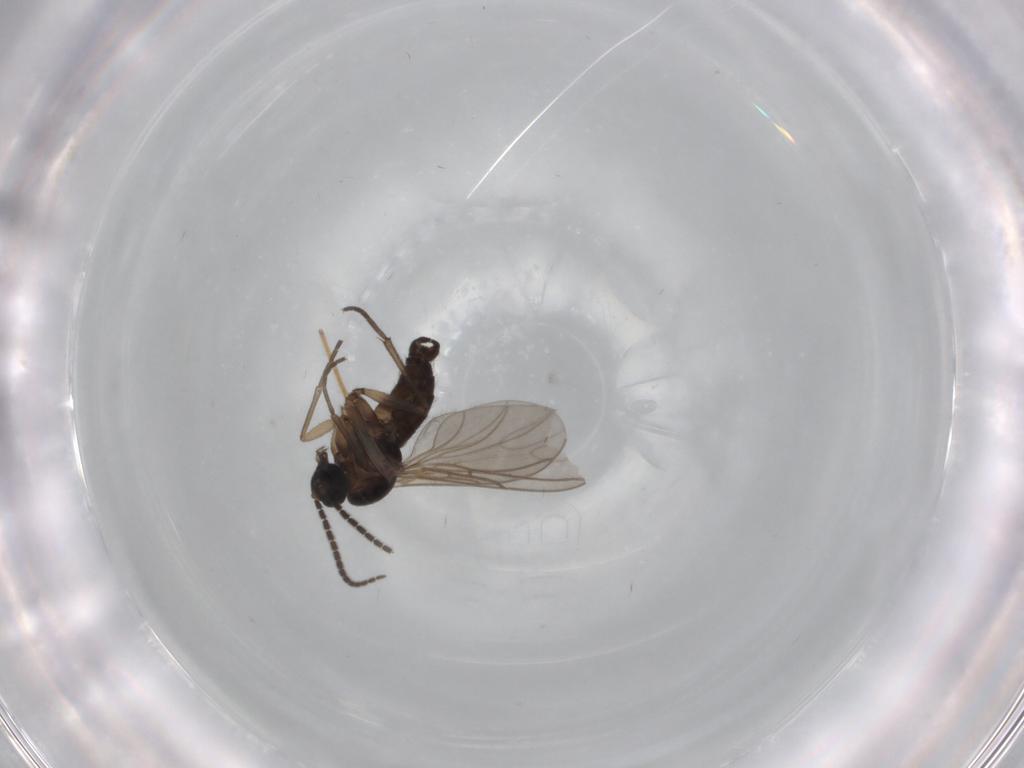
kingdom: Animalia
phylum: Arthropoda
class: Insecta
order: Diptera
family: Sciaridae
